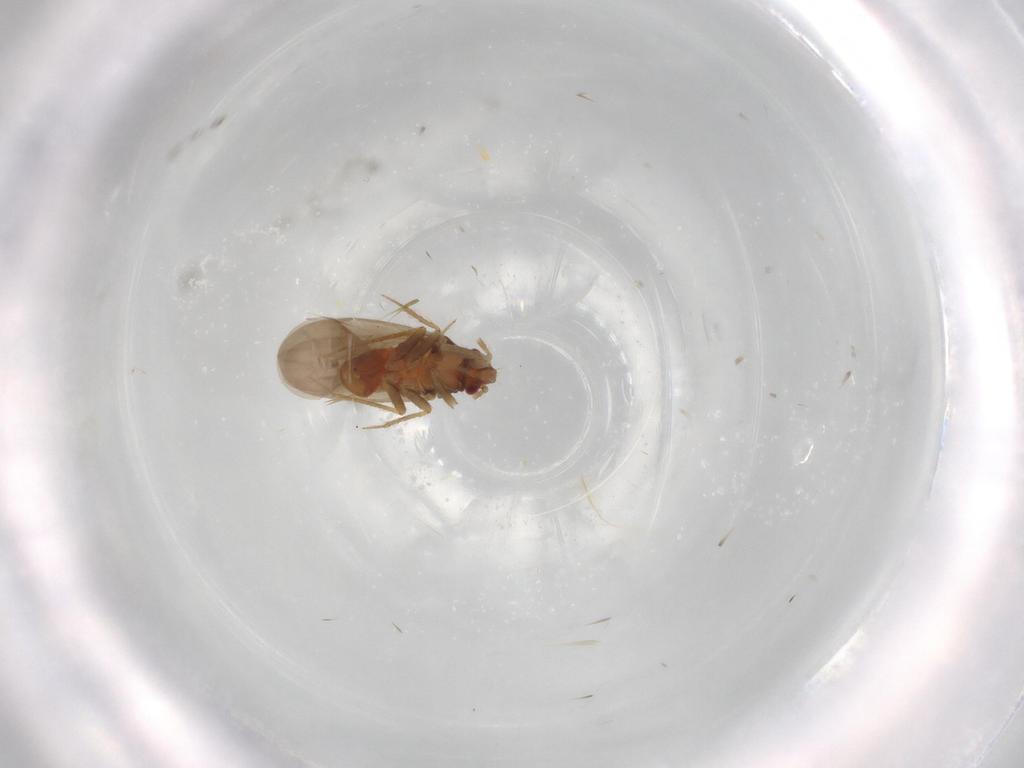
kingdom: Animalia
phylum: Arthropoda
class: Insecta
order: Hemiptera
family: Ceratocombidae
